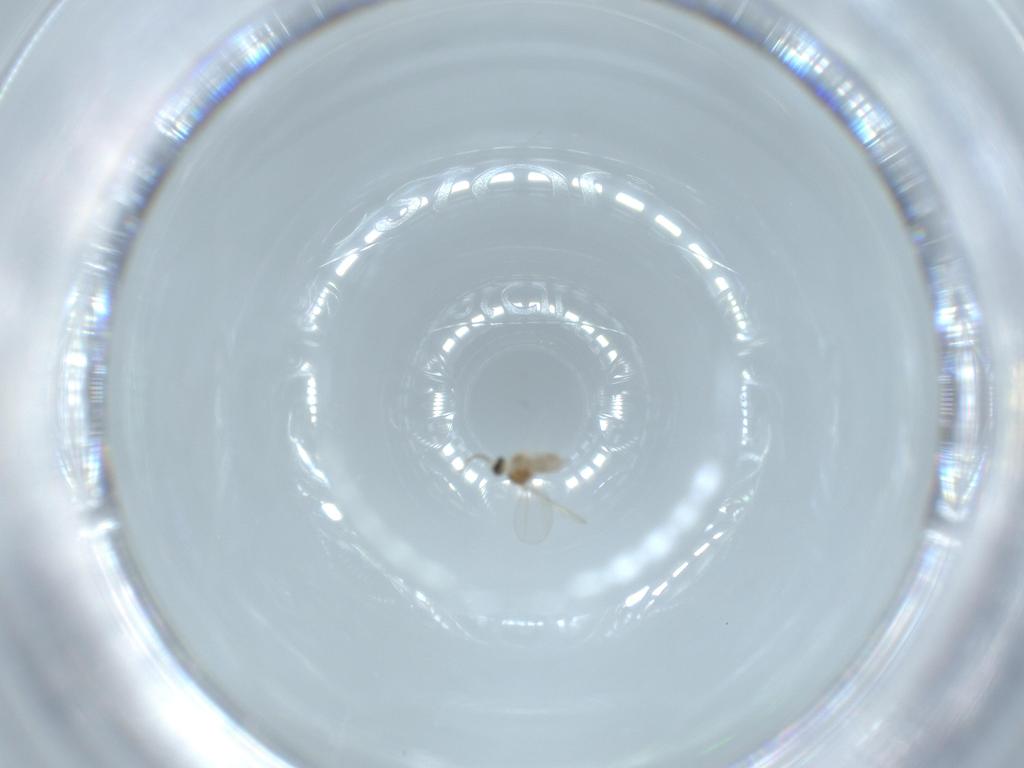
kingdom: Animalia
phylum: Arthropoda
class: Insecta
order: Diptera
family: Cecidomyiidae
